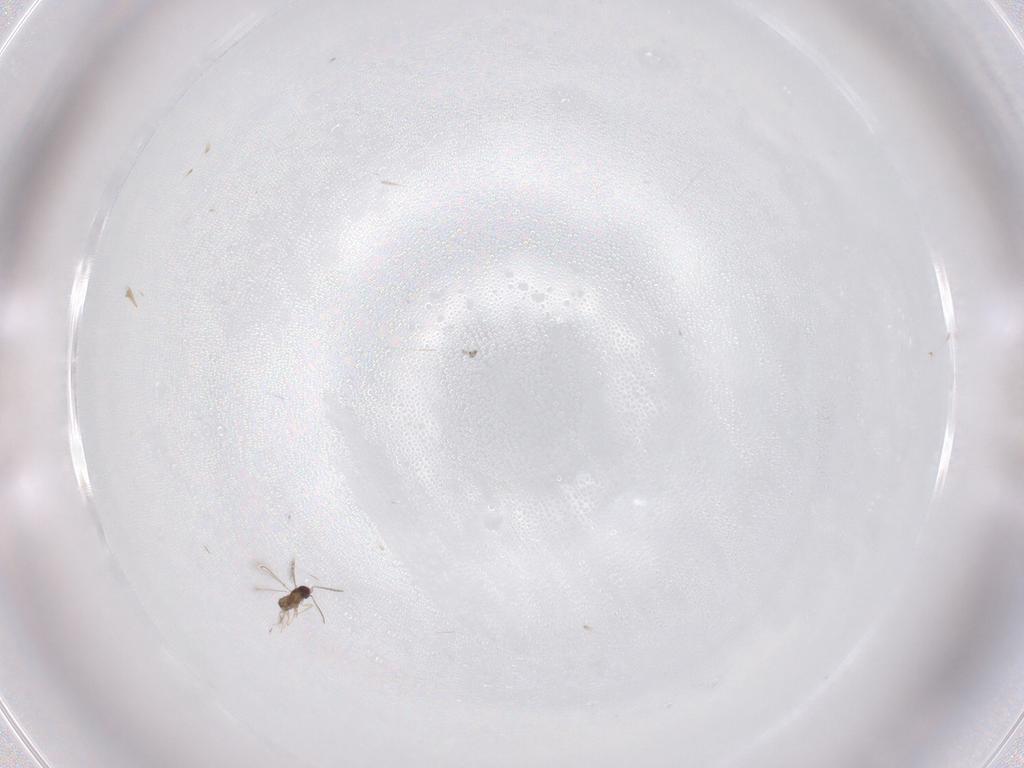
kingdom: Animalia
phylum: Arthropoda
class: Insecta
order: Hymenoptera
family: Mymaridae
